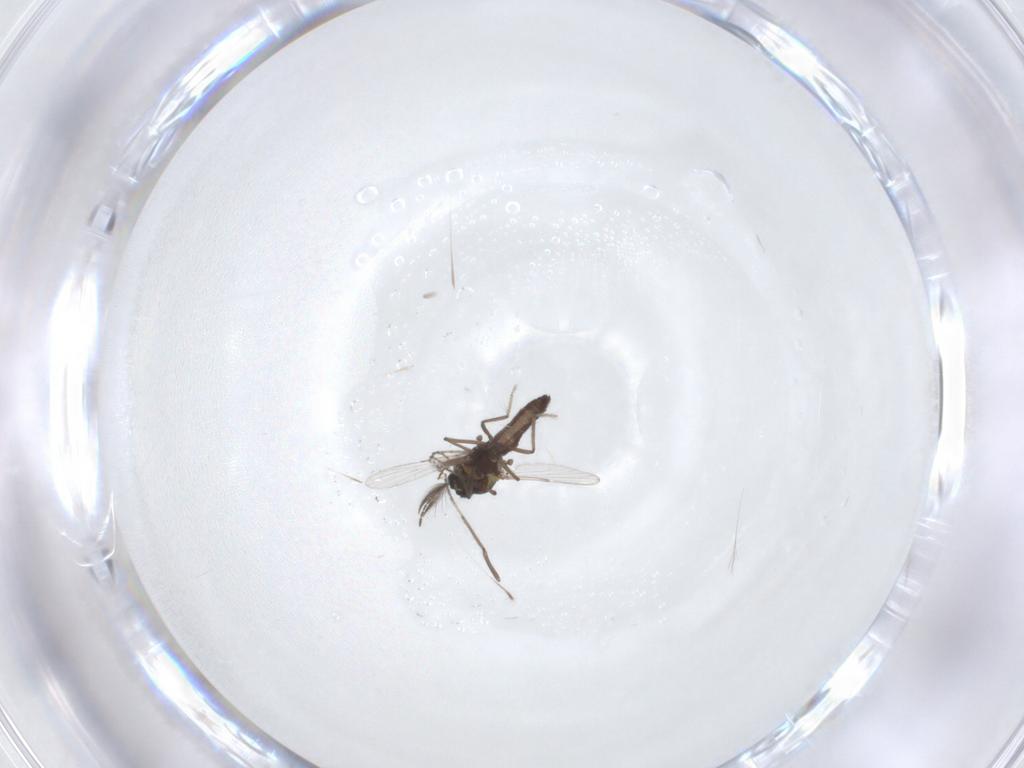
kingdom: Animalia
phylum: Arthropoda
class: Insecta
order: Diptera
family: Ceratopogonidae
